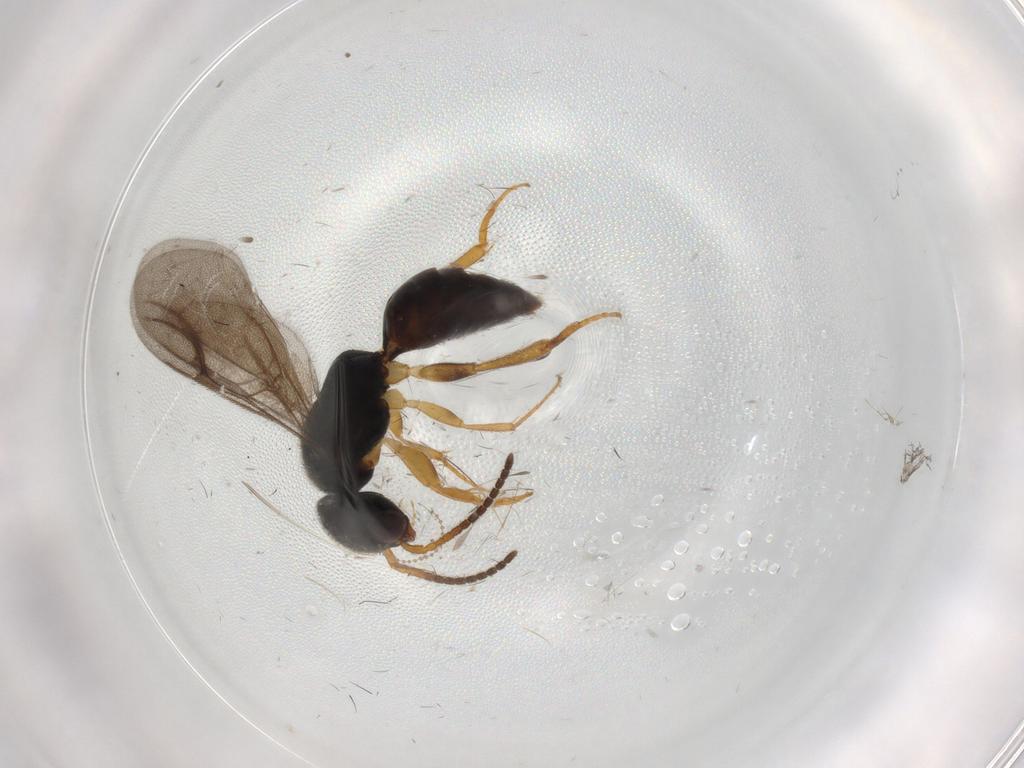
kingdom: Animalia
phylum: Arthropoda
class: Insecta
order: Hymenoptera
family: Bethylidae
